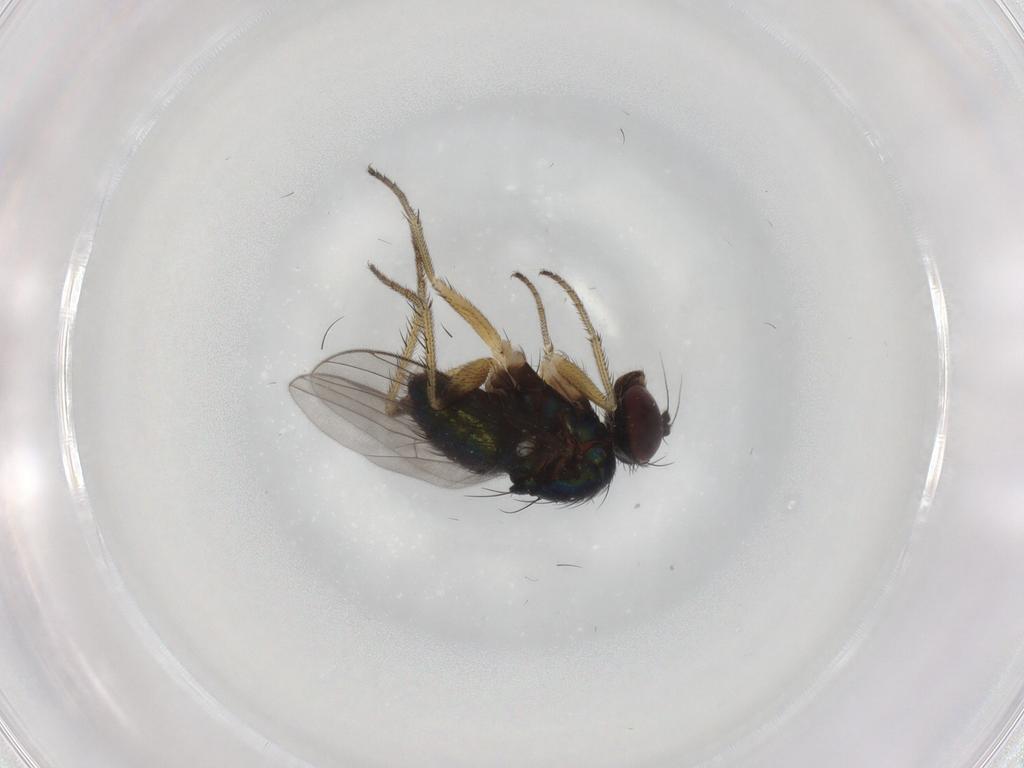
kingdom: Animalia
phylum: Arthropoda
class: Insecta
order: Diptera
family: Dolichopodidae
